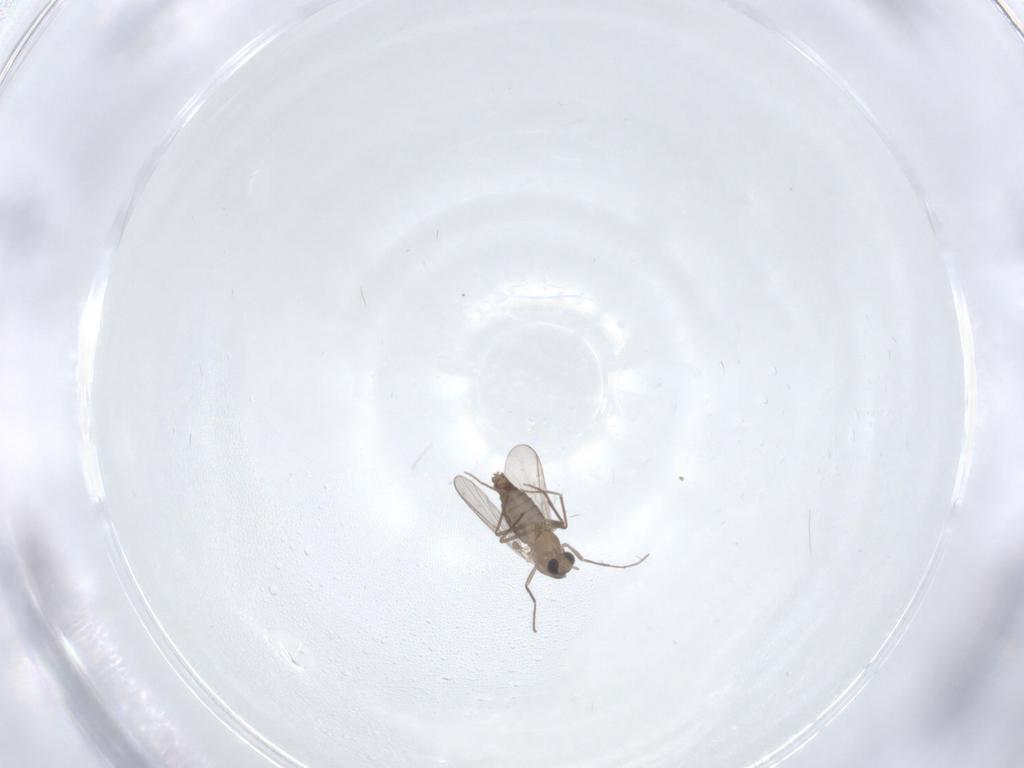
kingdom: Animalia
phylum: Arthropoda
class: Insecta
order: Diptera
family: Chironomidae
